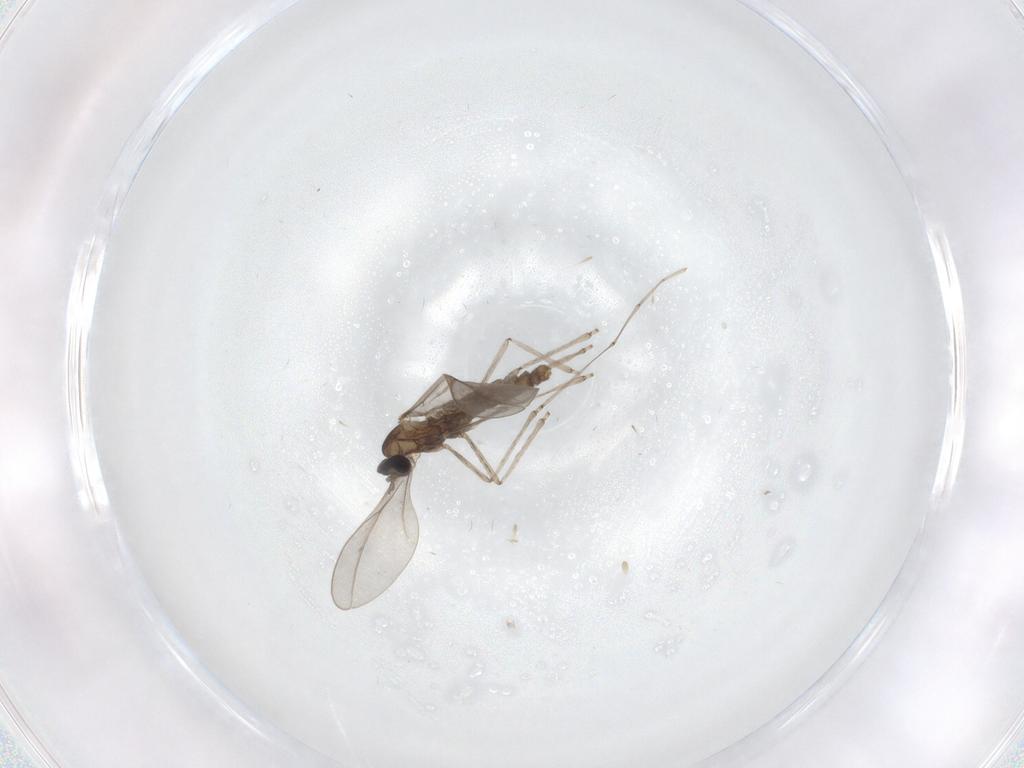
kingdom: Animalia
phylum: Arthropoda
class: Insecta
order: Diptera
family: Cecidomyiidae
